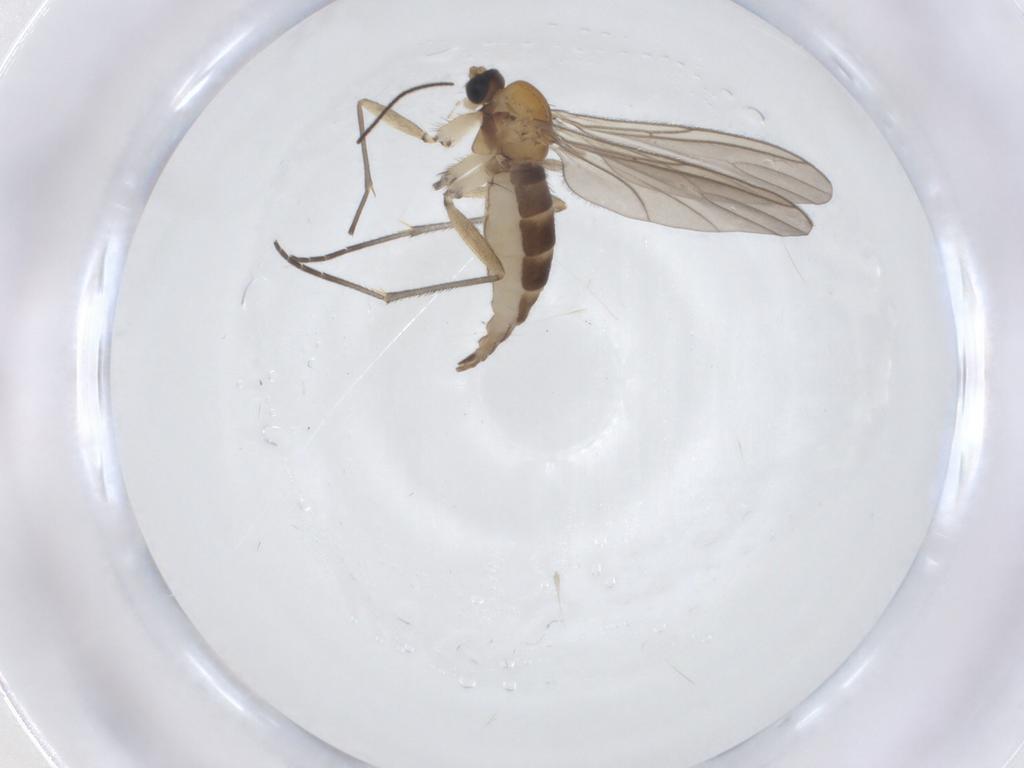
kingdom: Animalia
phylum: Arthropoda
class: Insecta
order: Diptera
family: Sciaridae
